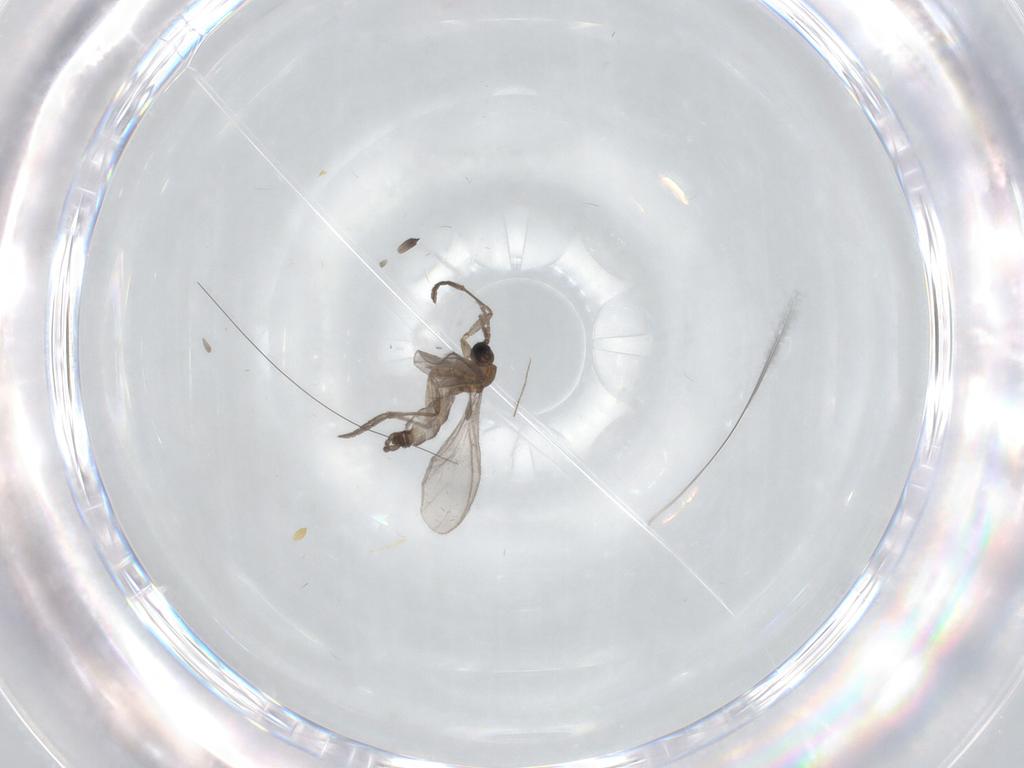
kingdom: Animalia
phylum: Arthropoda
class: Insecta
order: Diptera
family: Sciaridae
